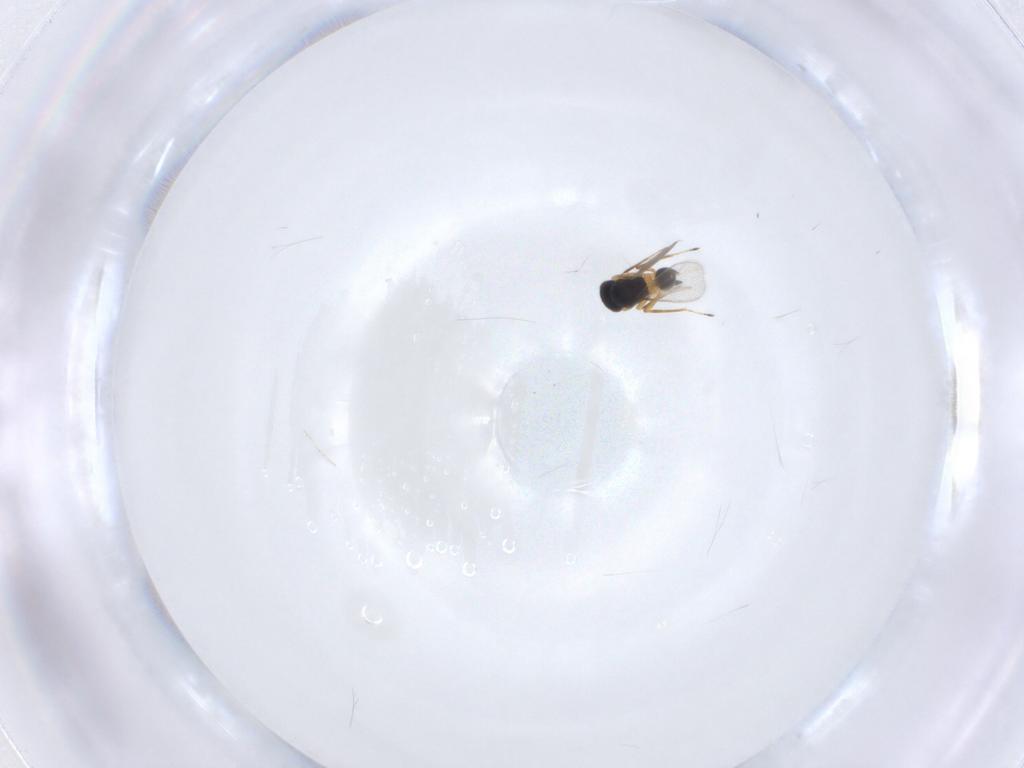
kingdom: Animalia
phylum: Arthropoda
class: Insecta
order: Hymenoptera
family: Mymaridae
